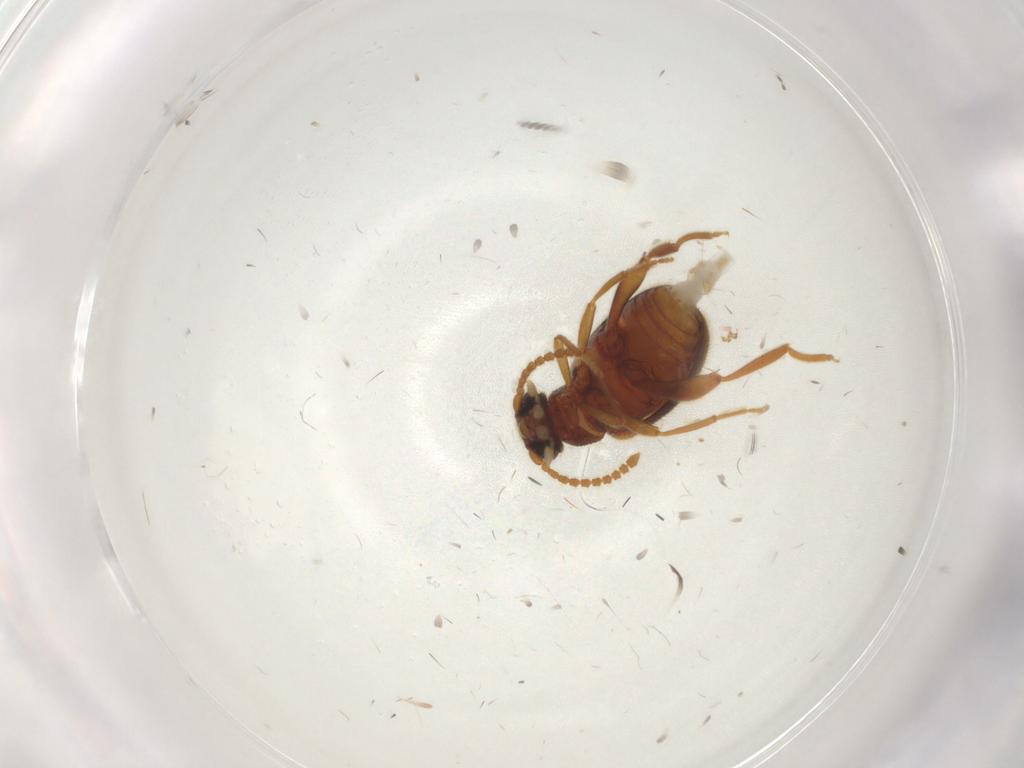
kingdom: Animalia
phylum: Arthropoda
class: Insecta
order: Coleoptera
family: Aderidae
